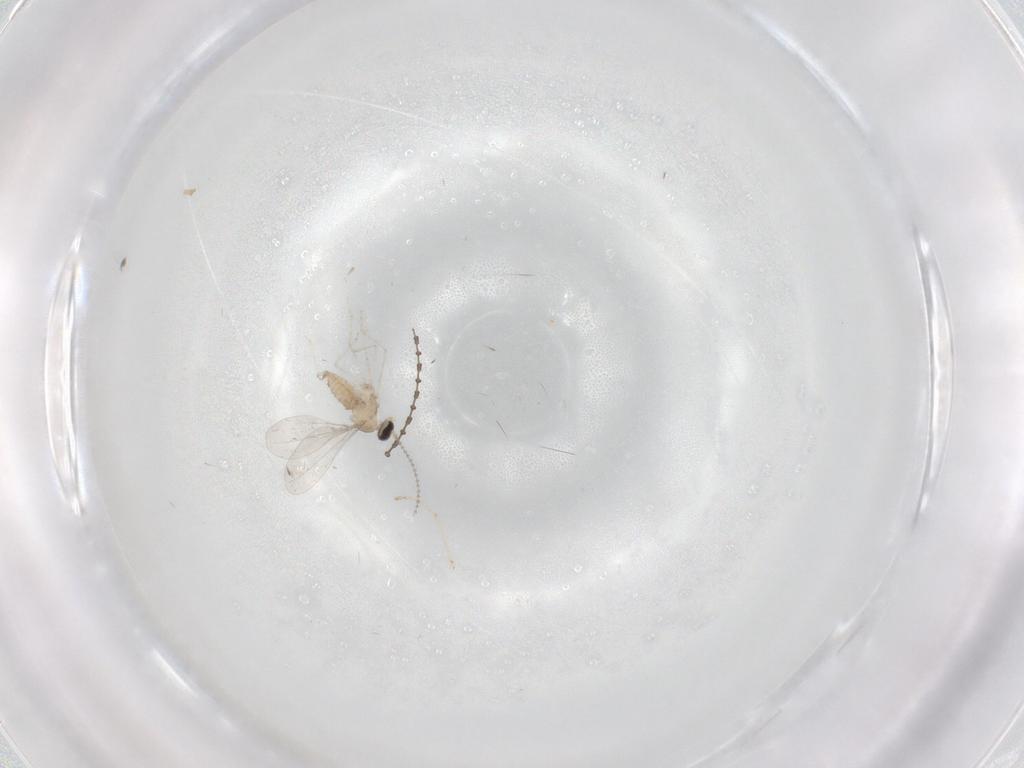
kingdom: Animalia
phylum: Arthropoda
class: Insecta
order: Diptera
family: Cecidomyiidae
